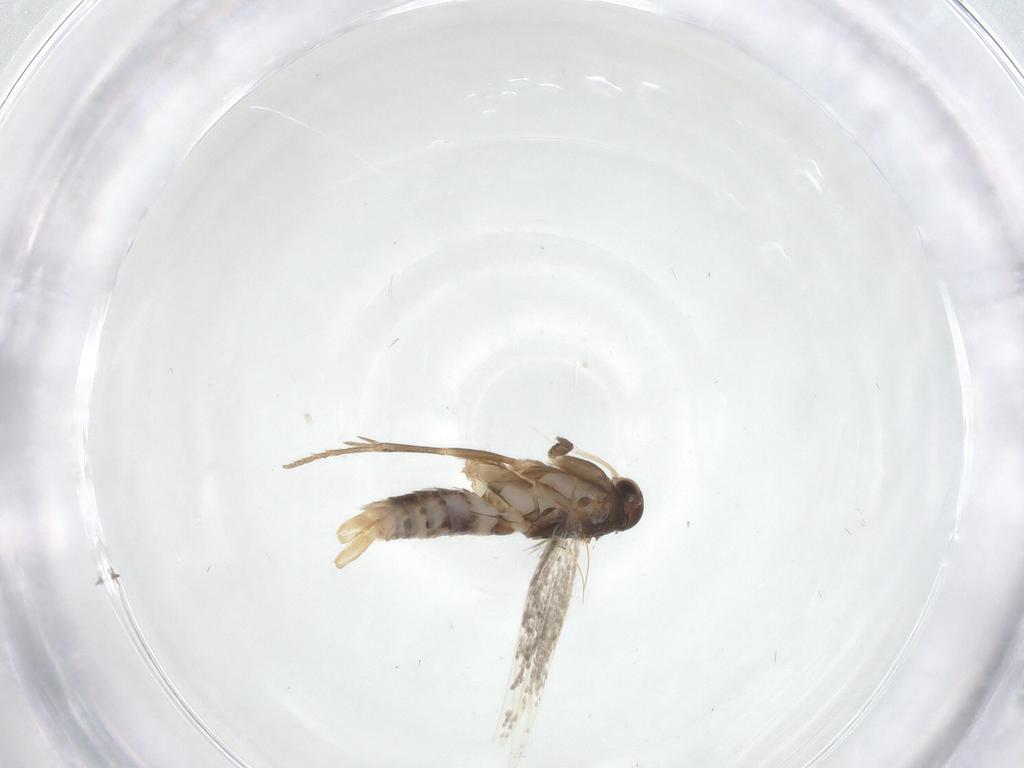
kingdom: Animalia
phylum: Arthropoda
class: Insecta
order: Lepidoptera
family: Elachistidae
